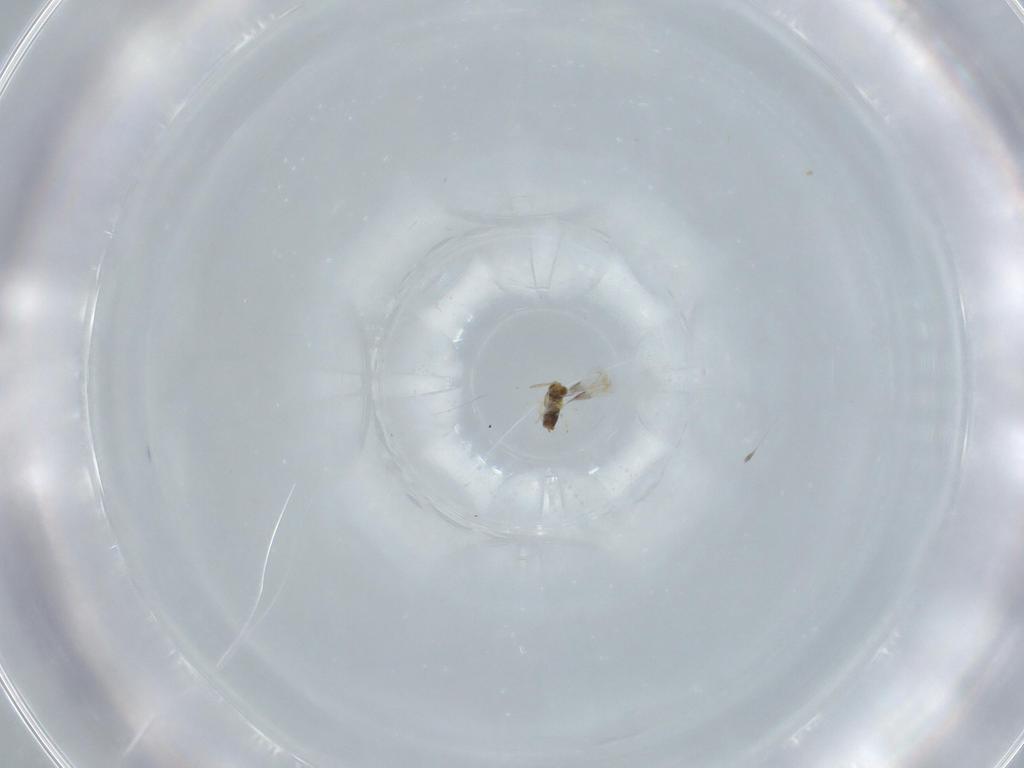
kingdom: Animalia
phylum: Arthropoda
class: Insecta
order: Hymenoptera
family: Aphelinidae
